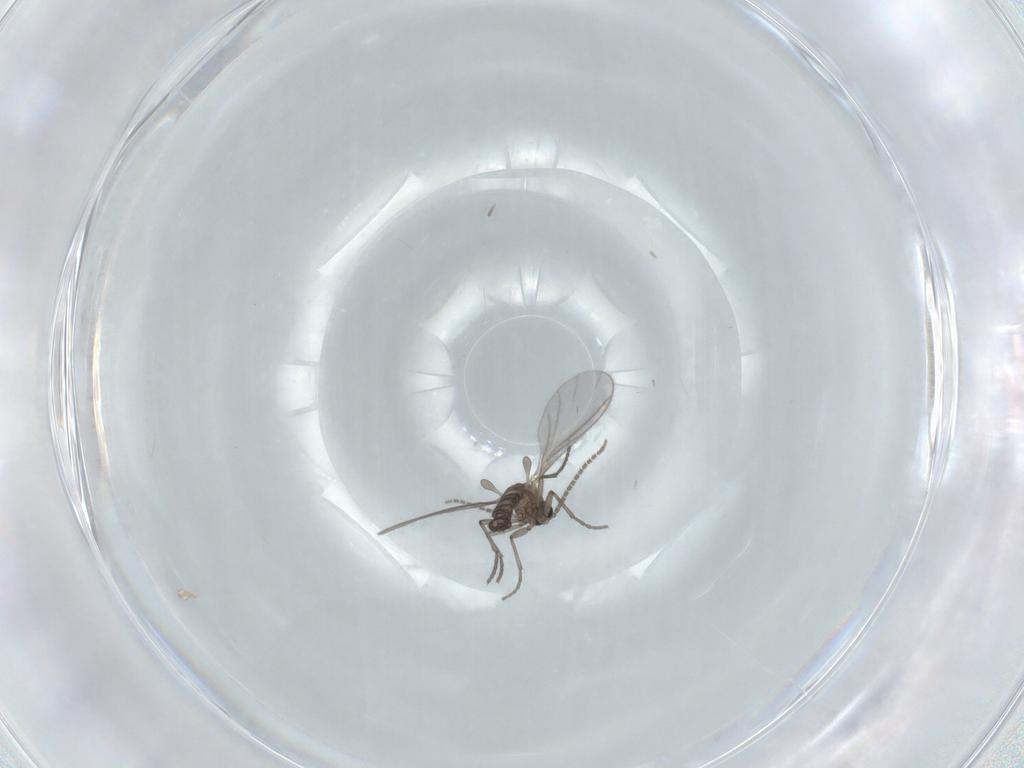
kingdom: Animalia
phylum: Arthropoda
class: Insecta
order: Diptera
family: Sciaridae
